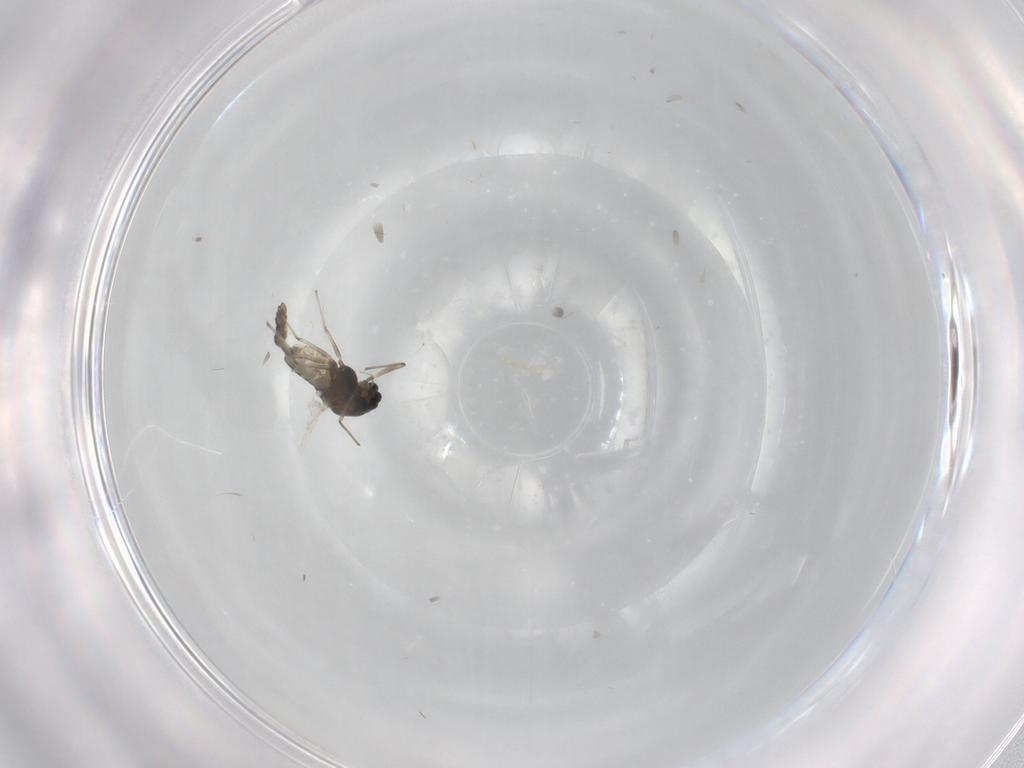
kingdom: Animalia
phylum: Arthropoda
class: Insecta
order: Diptera
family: Chironomidae
